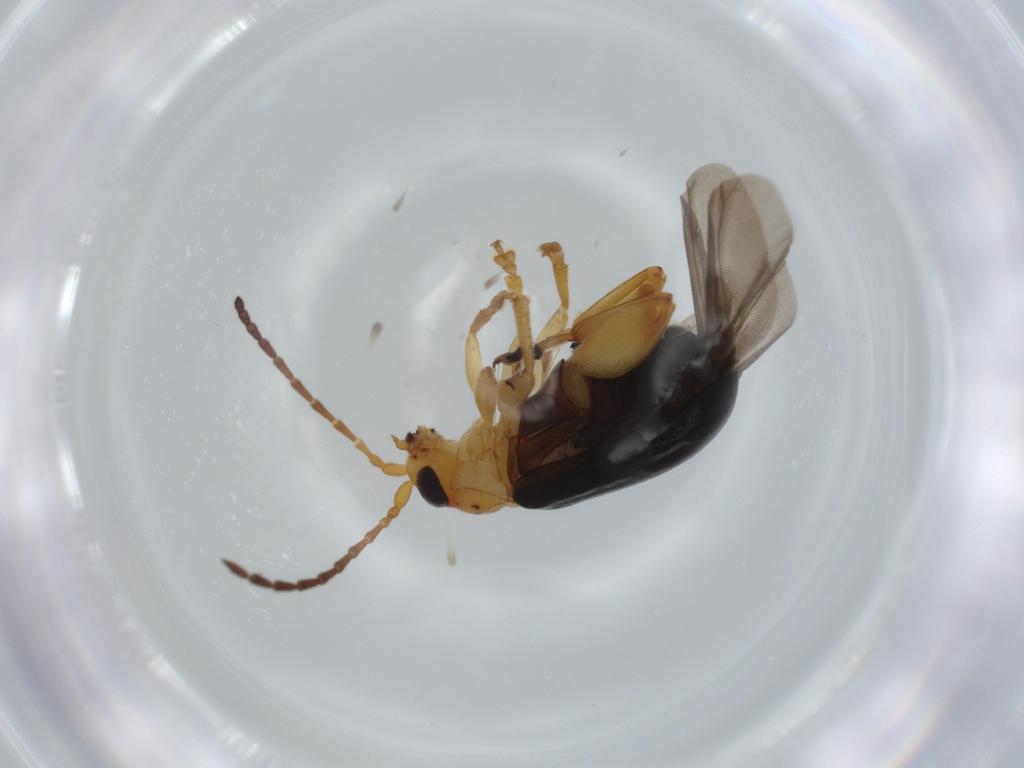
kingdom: Animalia
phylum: Arthropoda
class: Insecta
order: Coleoptera
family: Chrysomelidae
